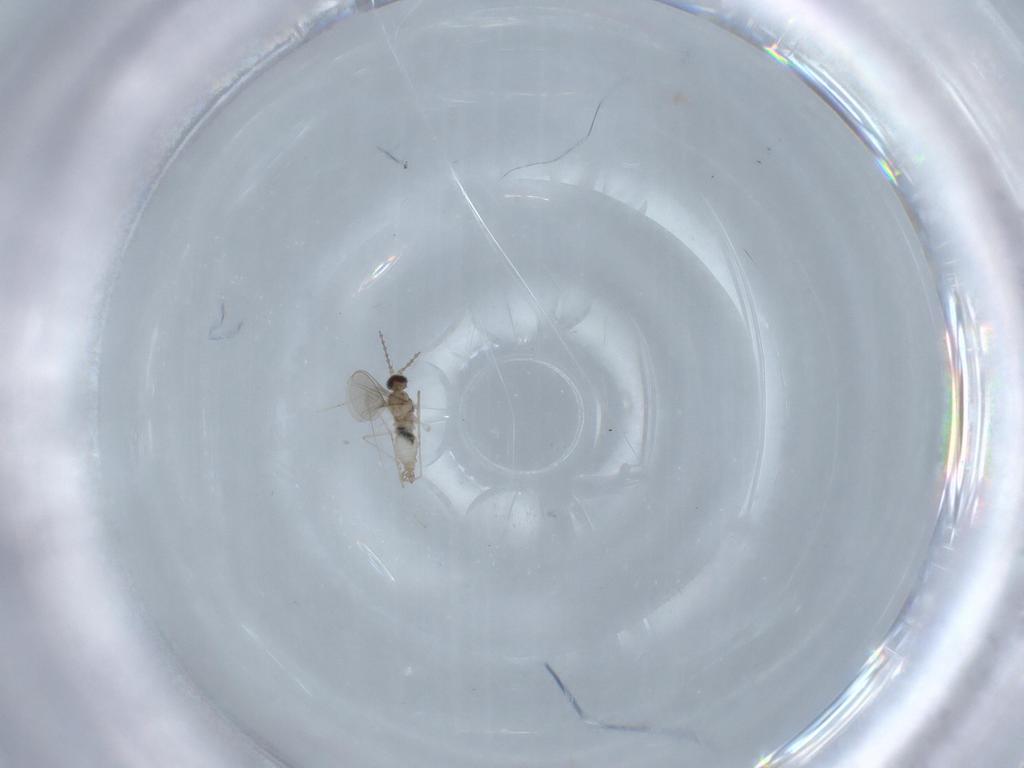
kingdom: Animalia
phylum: Arthropoda
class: Insecta
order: Diptera
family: Cecidomyiidae
